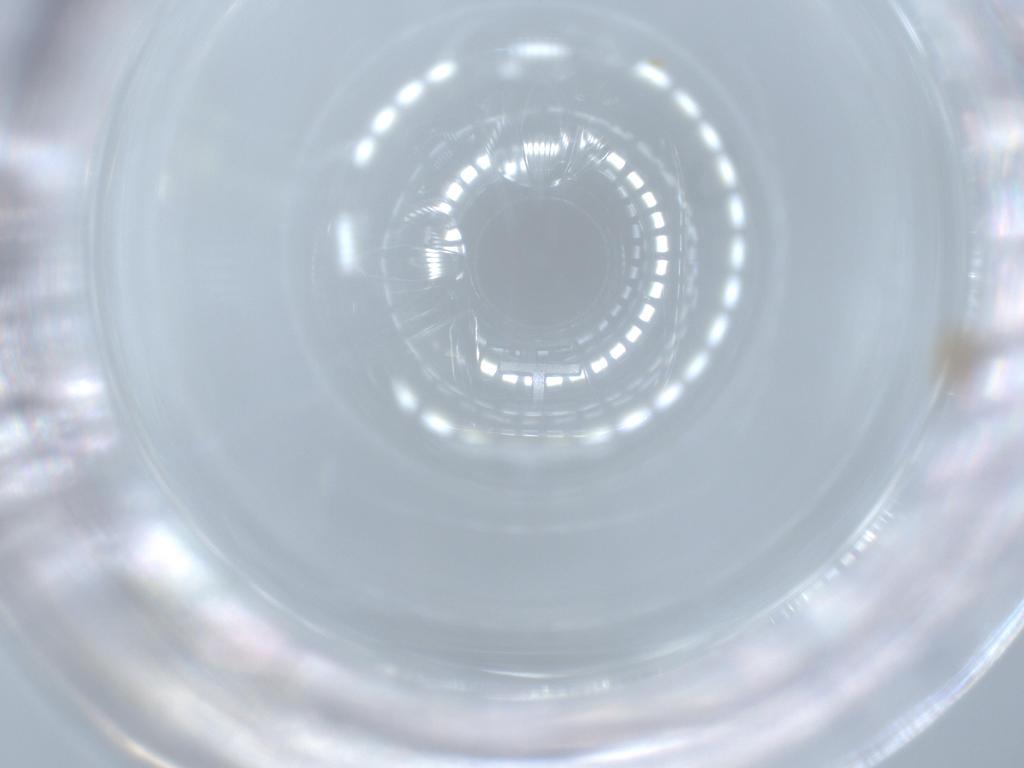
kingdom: Animalia
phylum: Arthropoda
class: Insecta
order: Thysanoptera
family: Thripidae
